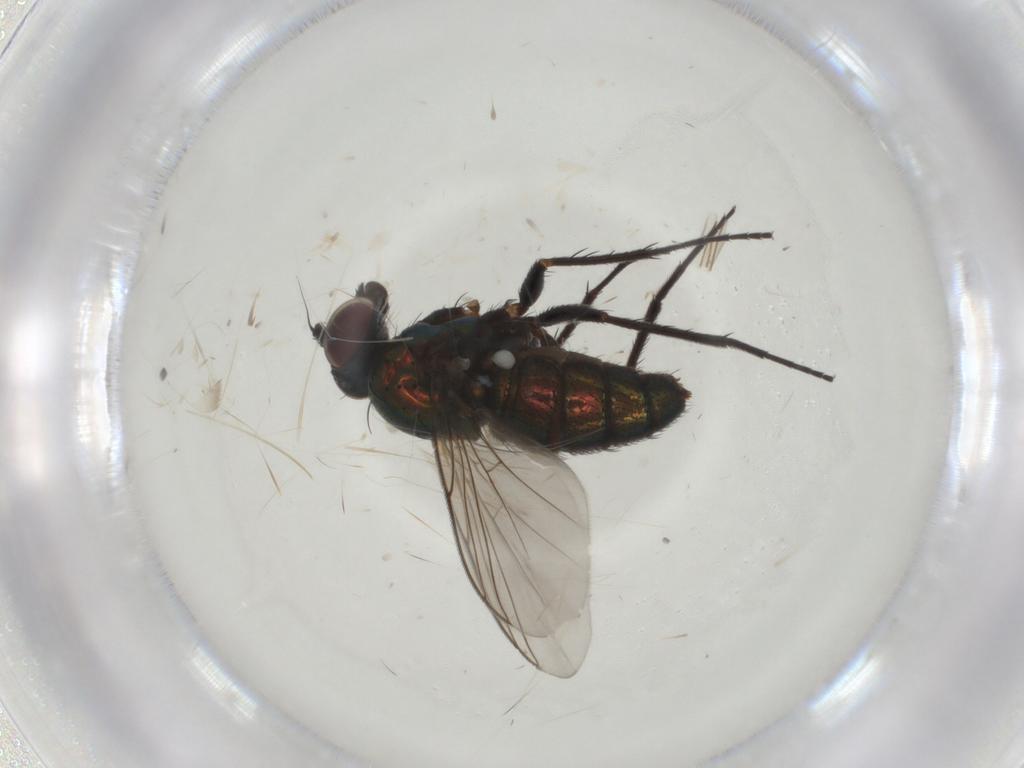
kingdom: Animalia
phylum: Arthropoda
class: Insecta
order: Diptera
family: Dolichopodidae
